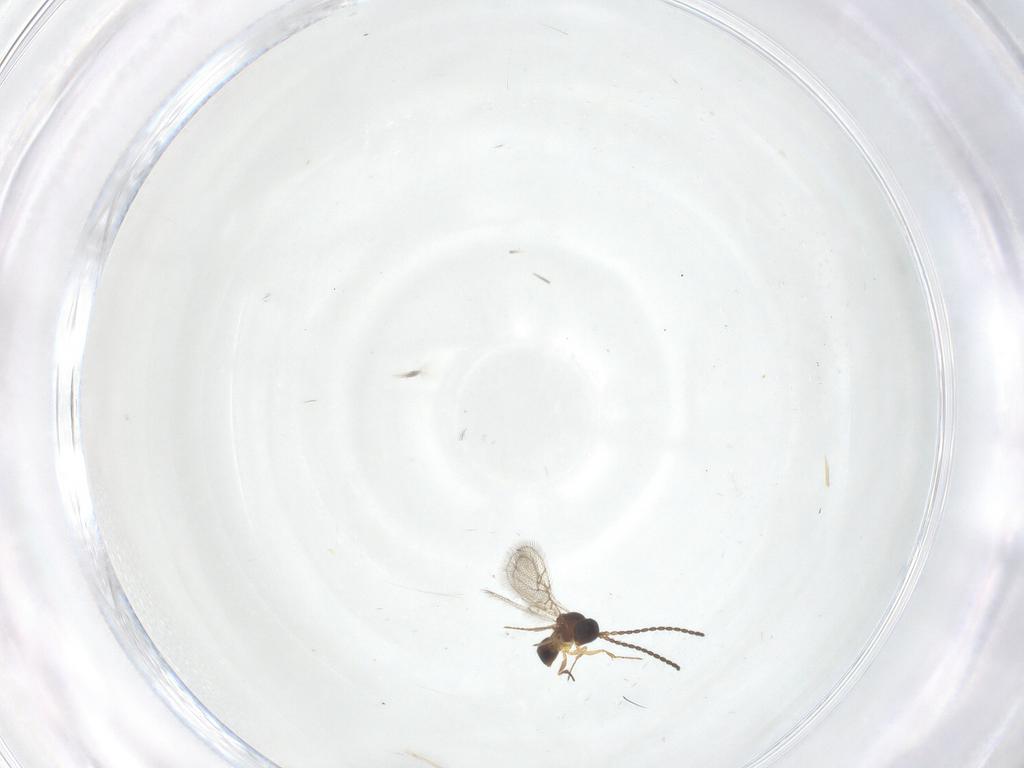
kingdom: Animalia
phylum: Arthropoda
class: Insecta
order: Hymenoptera
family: Figitidae
